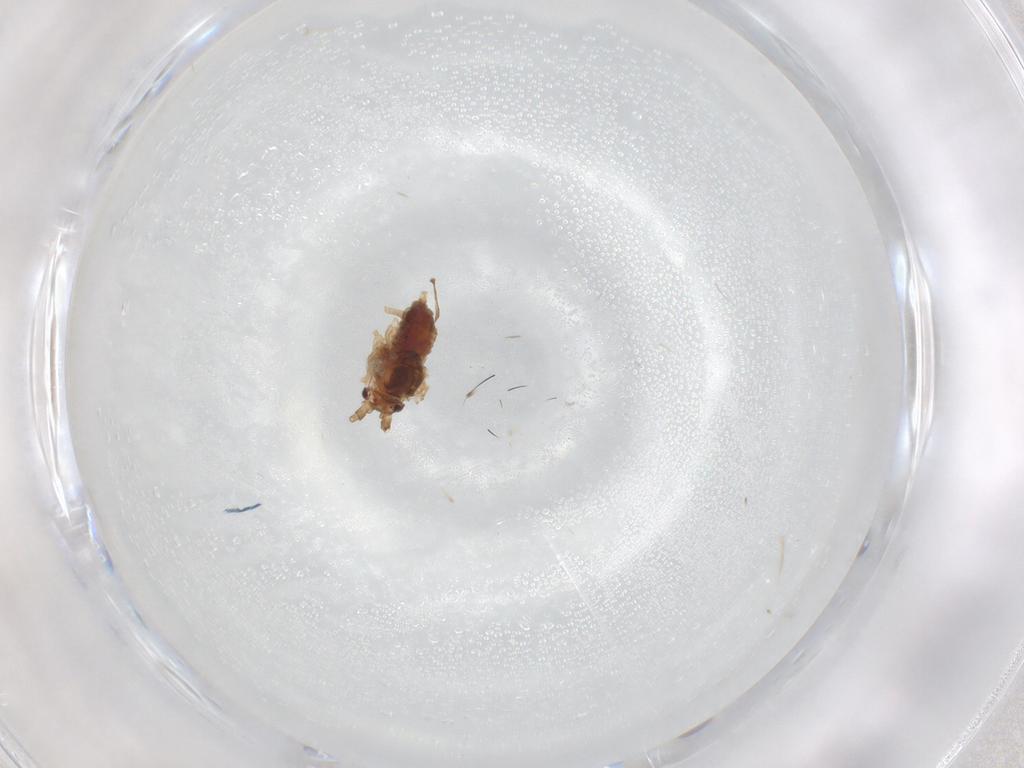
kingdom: Animalia
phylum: Arthropoda
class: Insecta
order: Hemiptera
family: Aphididae
